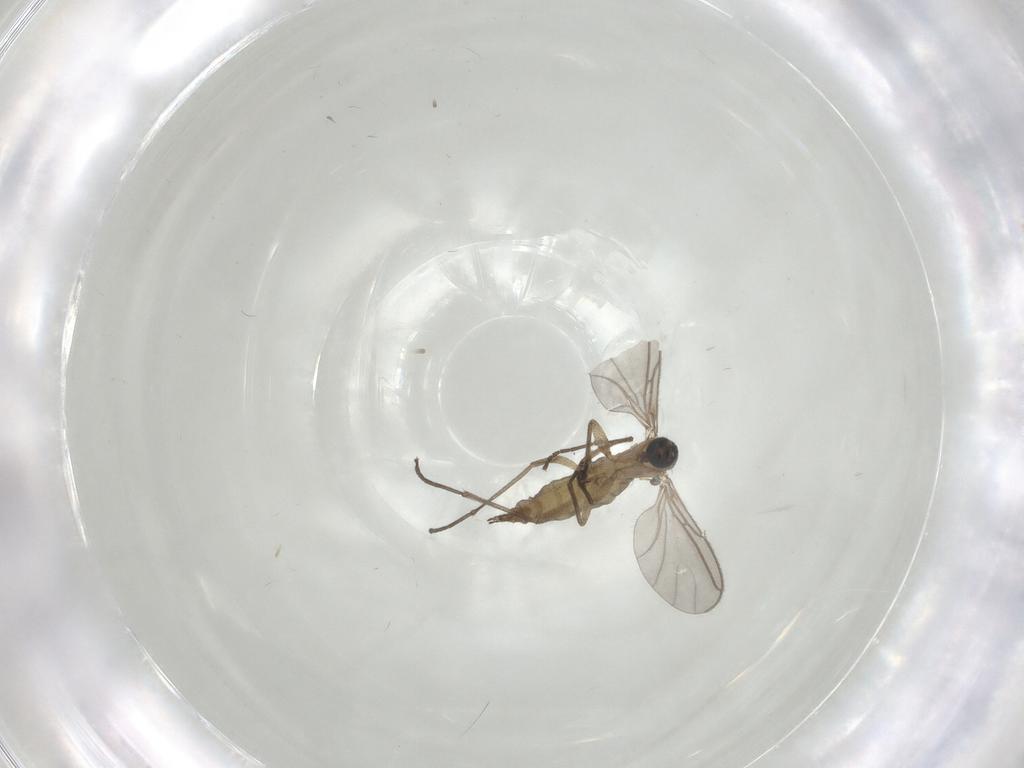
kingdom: Animalia
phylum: Arthropoda
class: Insecta
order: Diptera
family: Sciaridae
